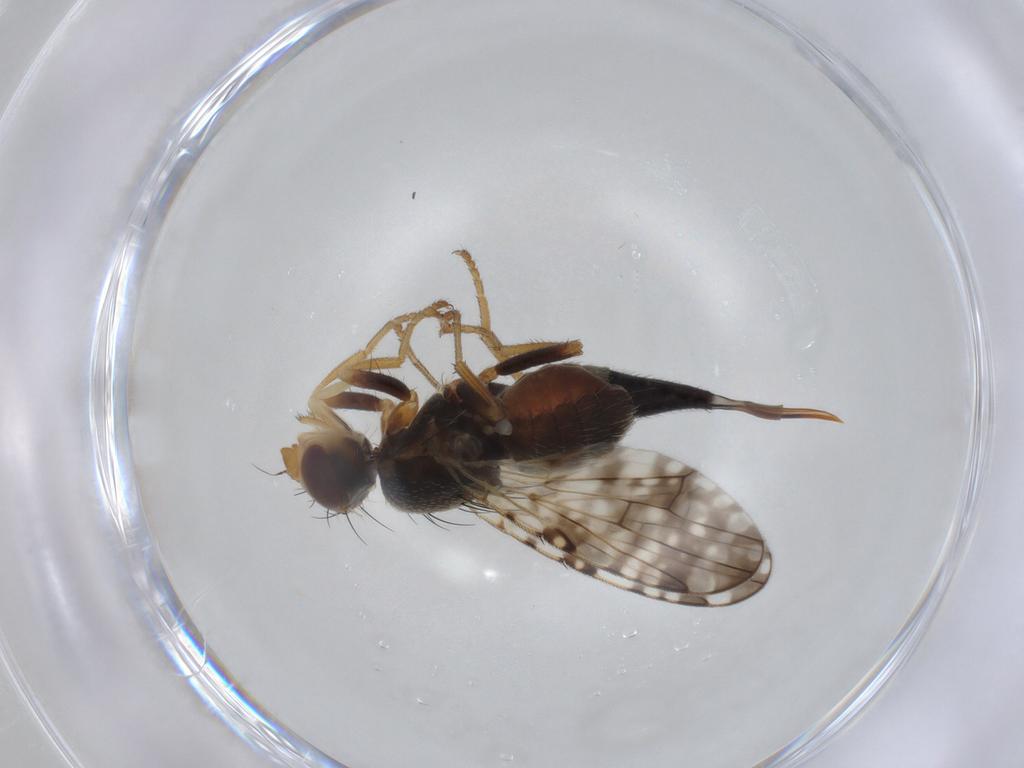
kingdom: Animalia
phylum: Arthropoda
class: Insecta
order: Diptera
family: Tephritidae
